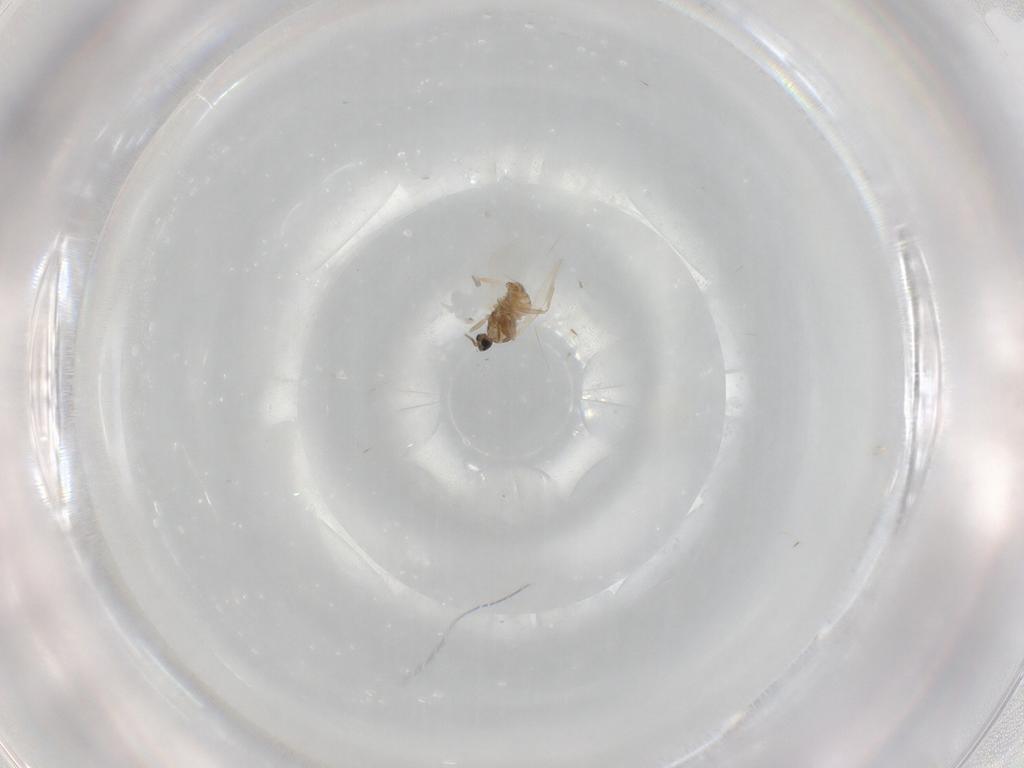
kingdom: Animalia
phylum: Arthropoda
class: Insecta
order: Diptera
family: Cecidomyiidae
